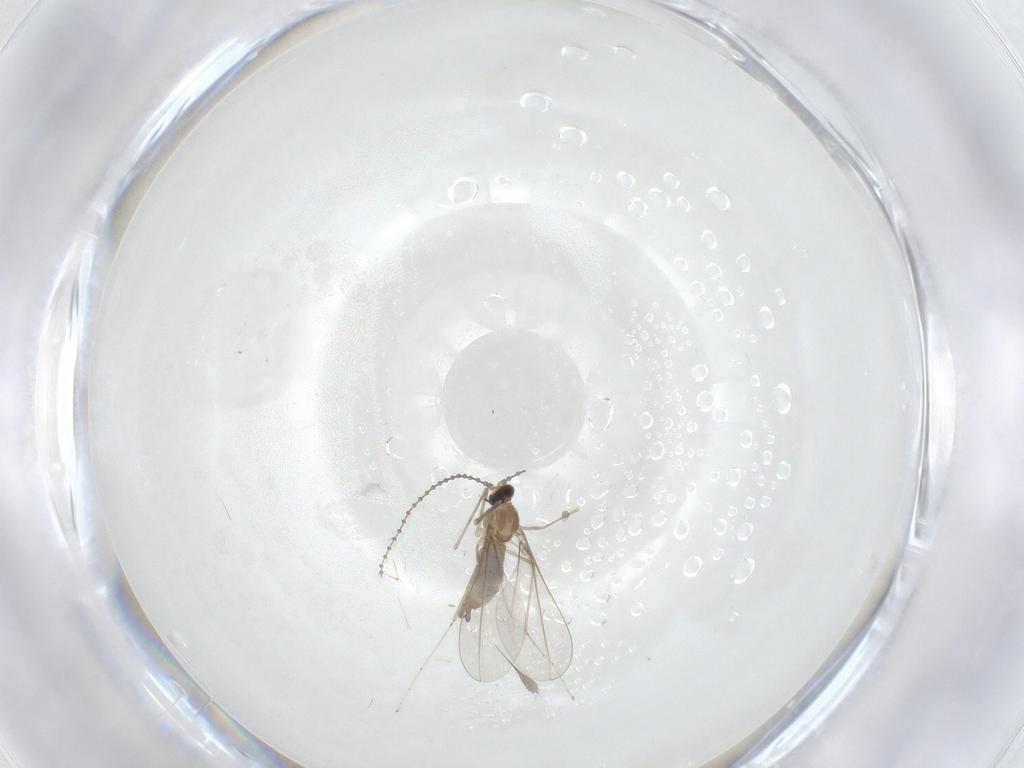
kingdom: Animalia
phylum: Arthropoda
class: Insecta
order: Diptera
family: Cecidomyiidae
